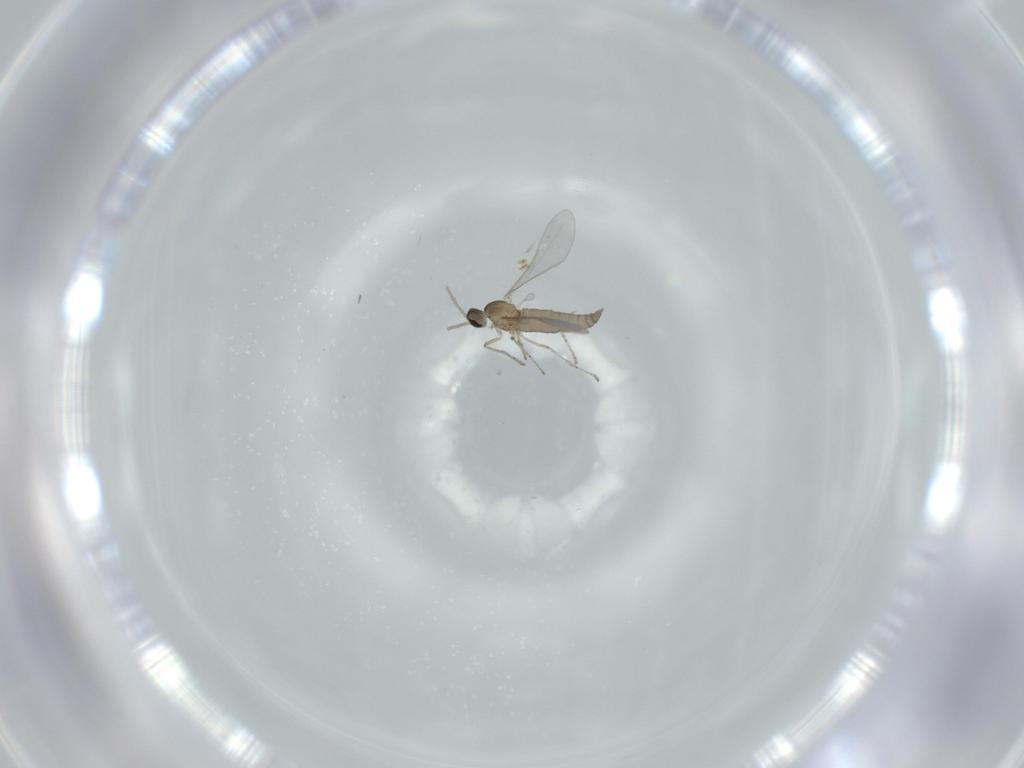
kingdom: Animalia
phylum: Arthropoda
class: Insecta
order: Diptera
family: Cecidomyiidae
